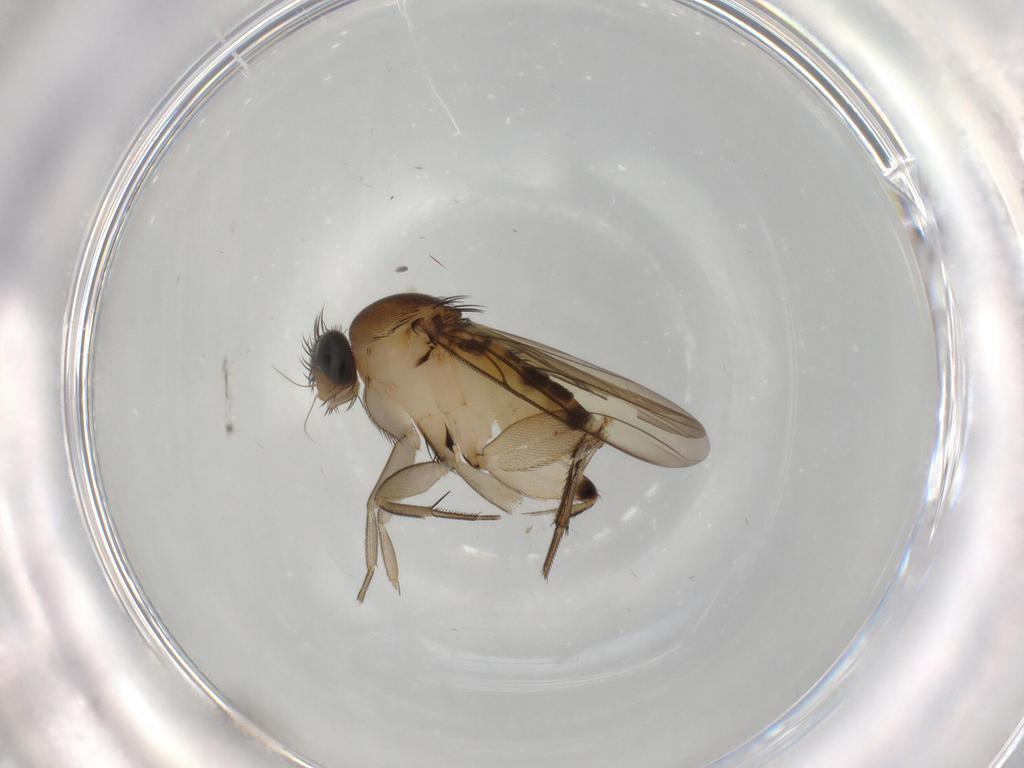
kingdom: Animalia
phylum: Arthropoda
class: Insecta
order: Diptera
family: Phoridae
